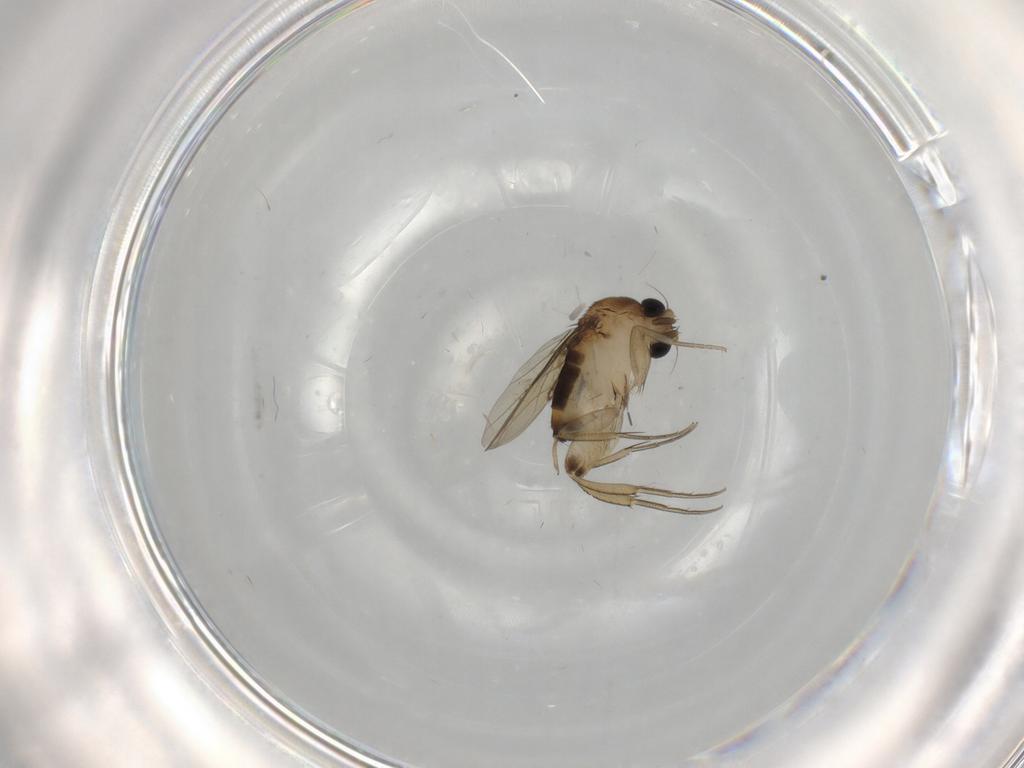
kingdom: Animalia
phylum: Arthropoda
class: Insecta
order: Diptera
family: Phoridae
